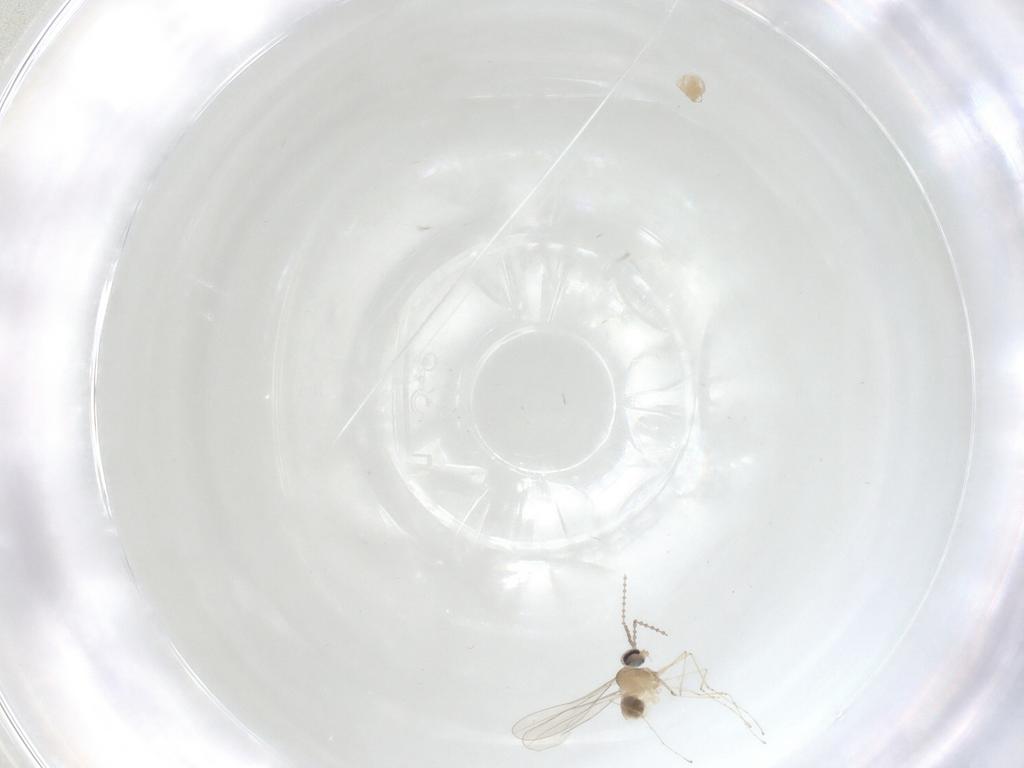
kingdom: Animalia
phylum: Arthropoda
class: Insecta
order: Diptera
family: Cecidomyiidae
